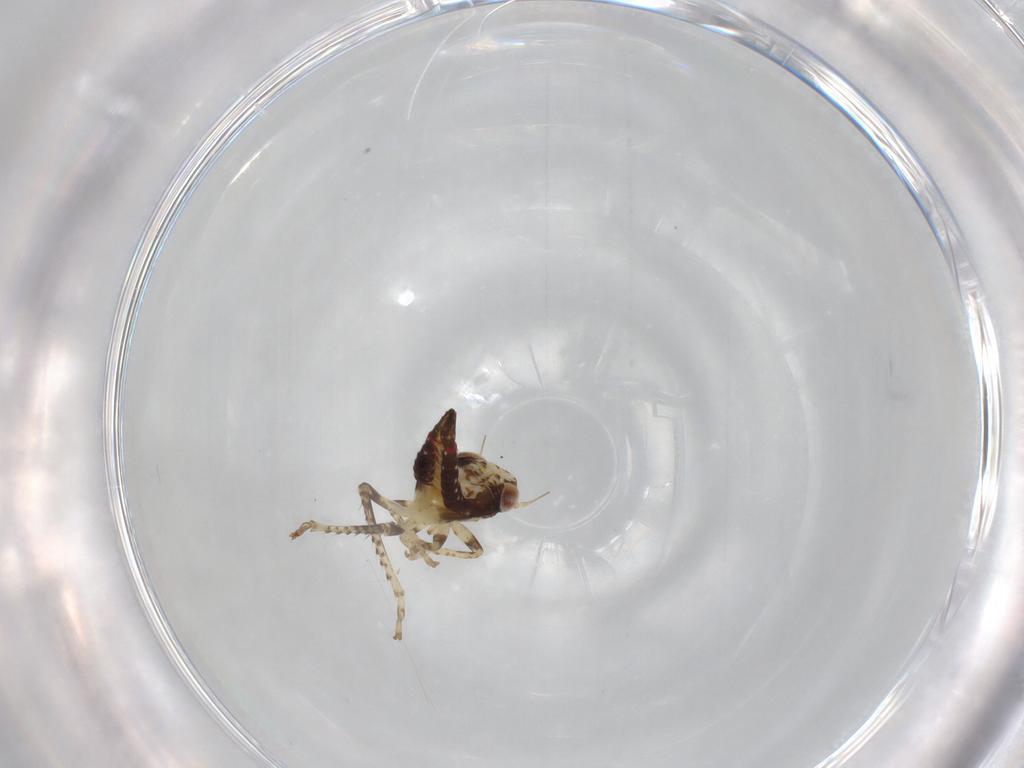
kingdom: Animalia
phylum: Arthropoda
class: Insecta
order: Hemiptera
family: Cicadellidae
